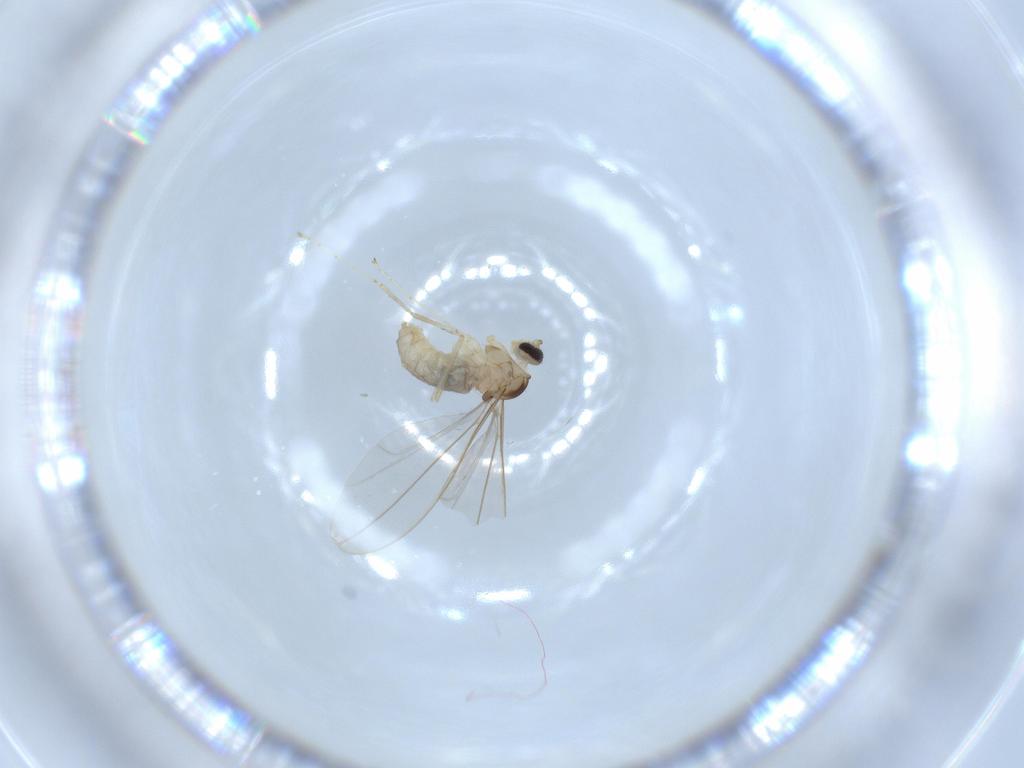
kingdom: Animalia
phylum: Arthropoda
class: Insecta
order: Diptera
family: Cecidomyiidae
